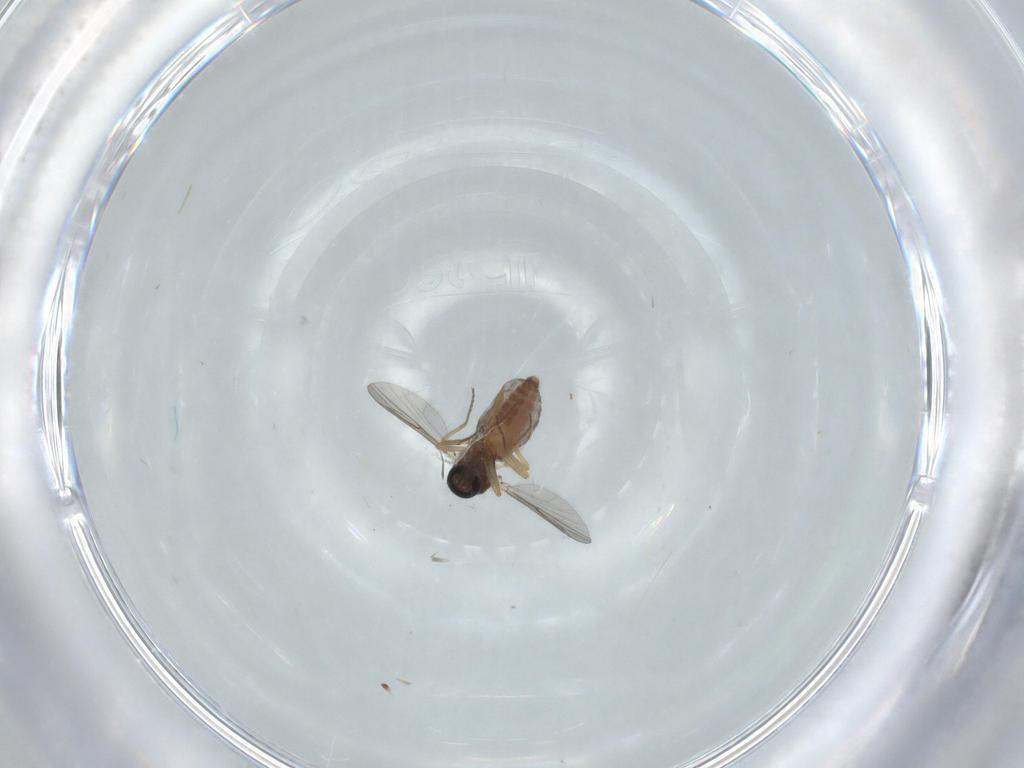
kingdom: Animalia
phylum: Arthropoda
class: Insecta
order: Diptera
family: Ceratopogonidae
